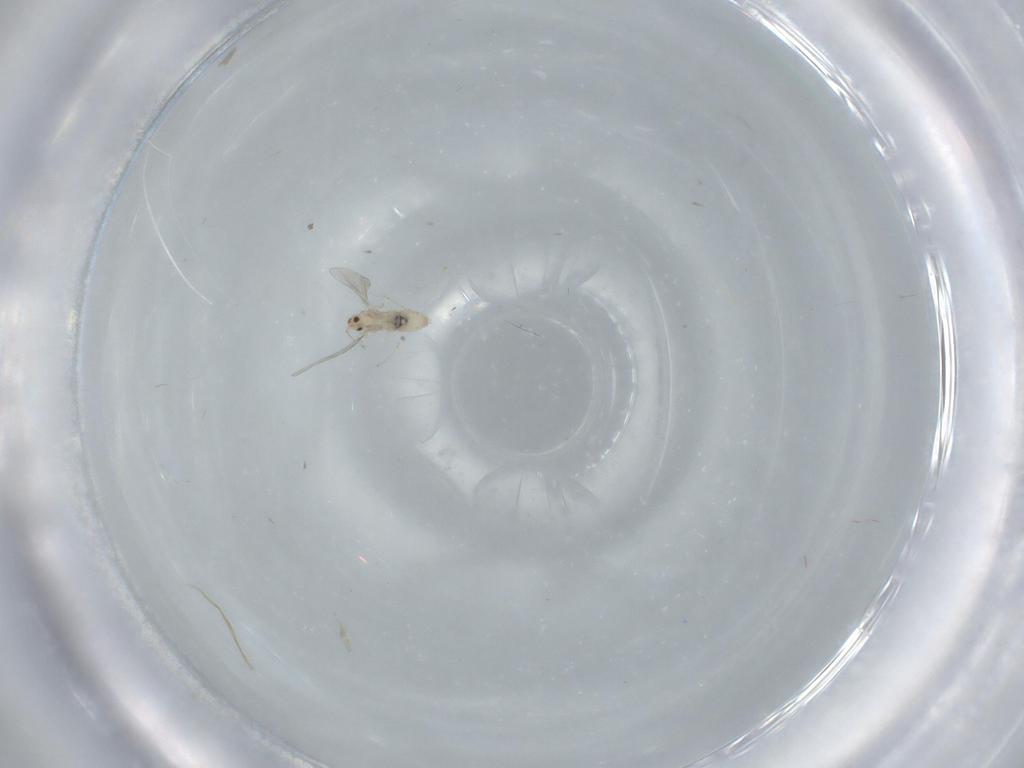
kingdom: Animalia
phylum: Arthropoda
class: Insecta
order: Diptera
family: Cecidomyiidae
